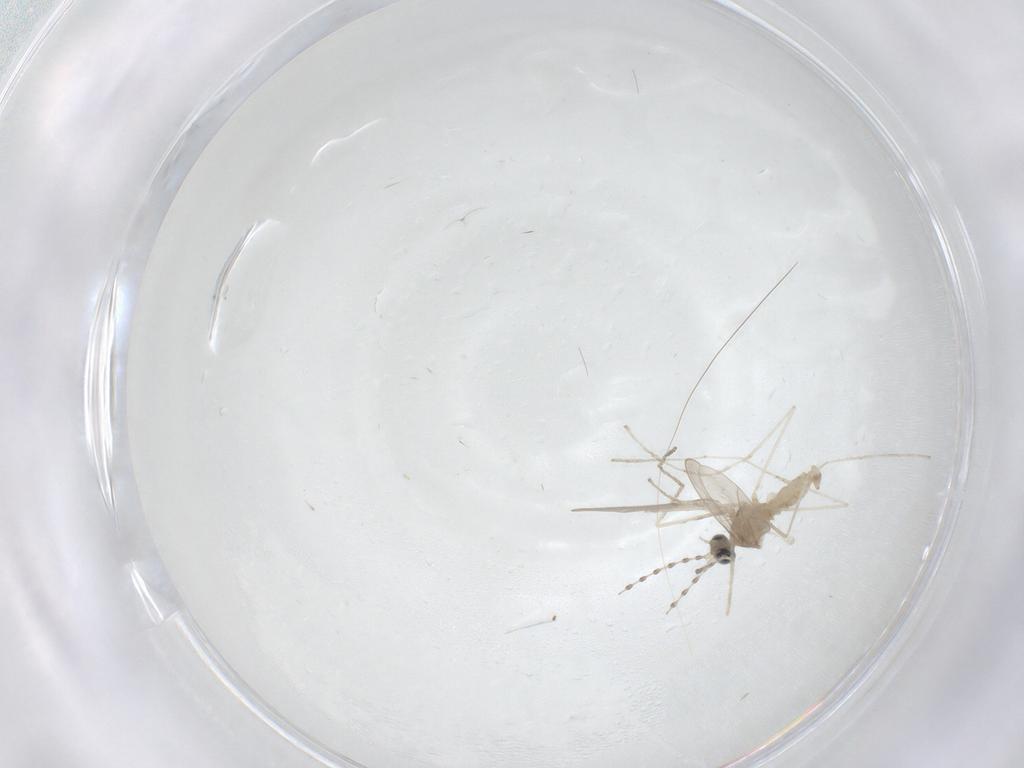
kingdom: Animalia
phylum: Arthropoda
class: Insecta
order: Diptera
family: Cecidomyiidae
